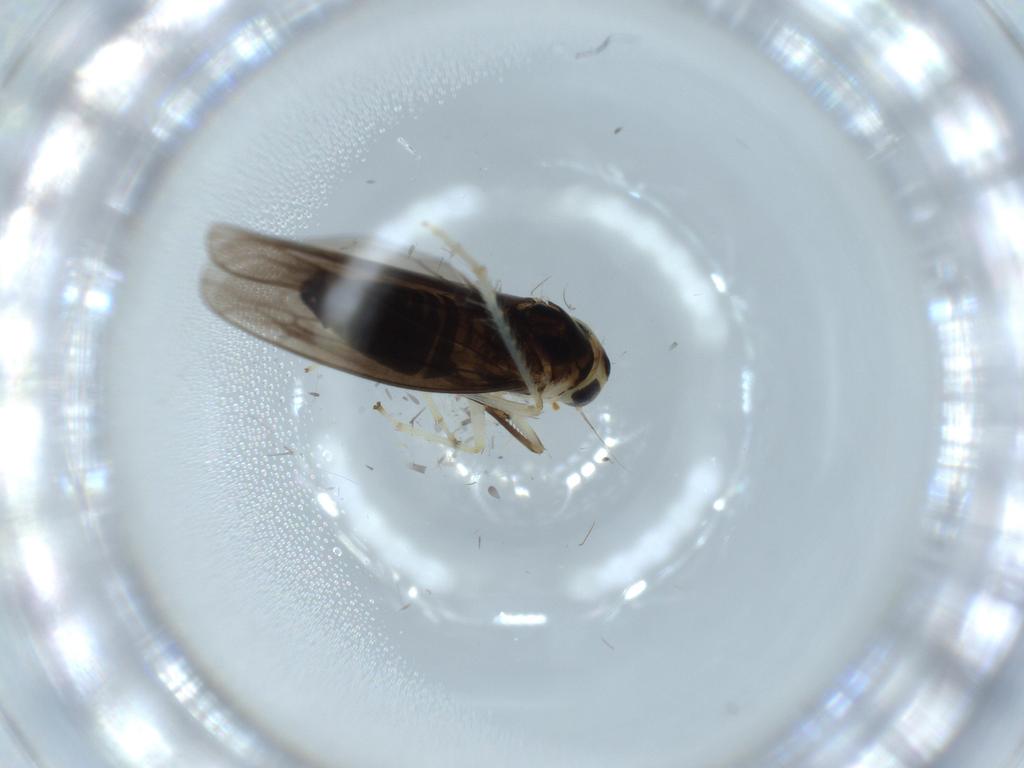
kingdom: Animalia
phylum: Arthropoda
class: Insecta
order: Hemiptera
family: Cicadellidae
